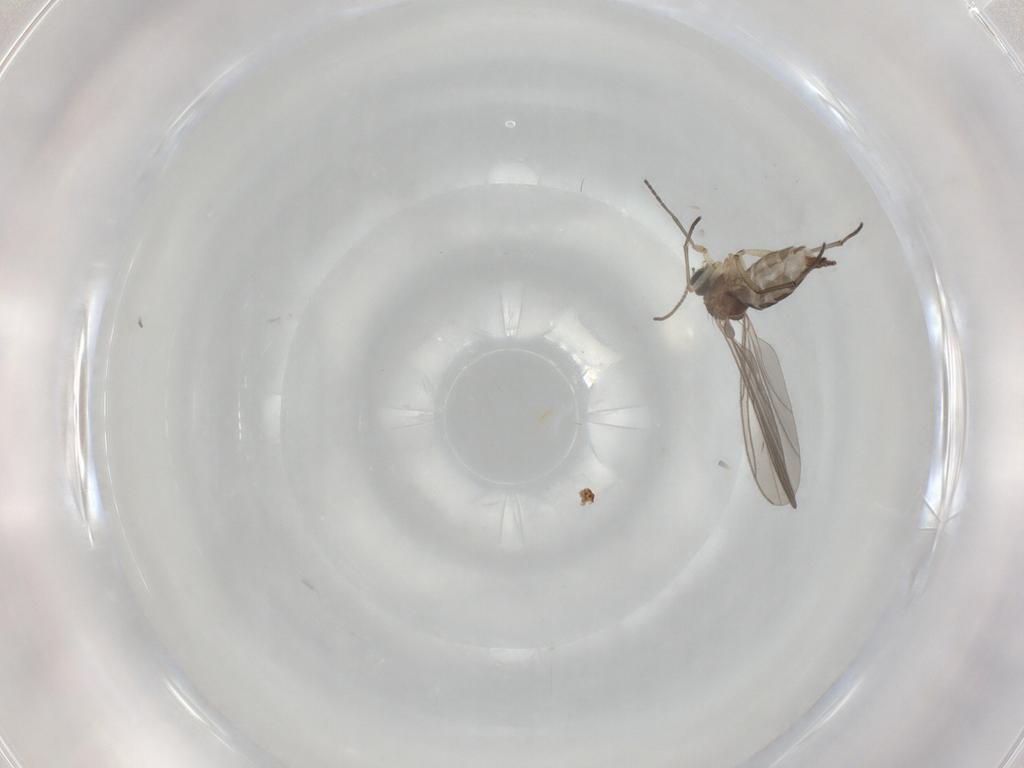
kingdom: Animalia
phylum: Arthropoda
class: Insecta
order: Diptera
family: Sciaridae
